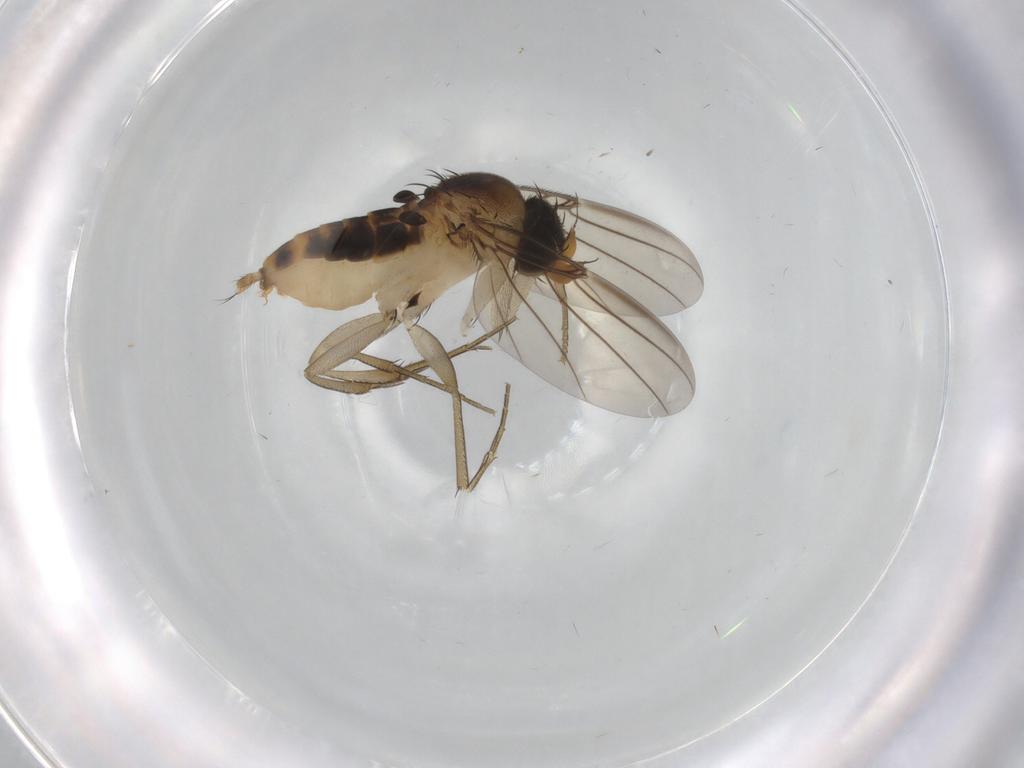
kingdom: Animalia
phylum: Arthropoda
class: Insecta
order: Diptera
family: Phoridae
